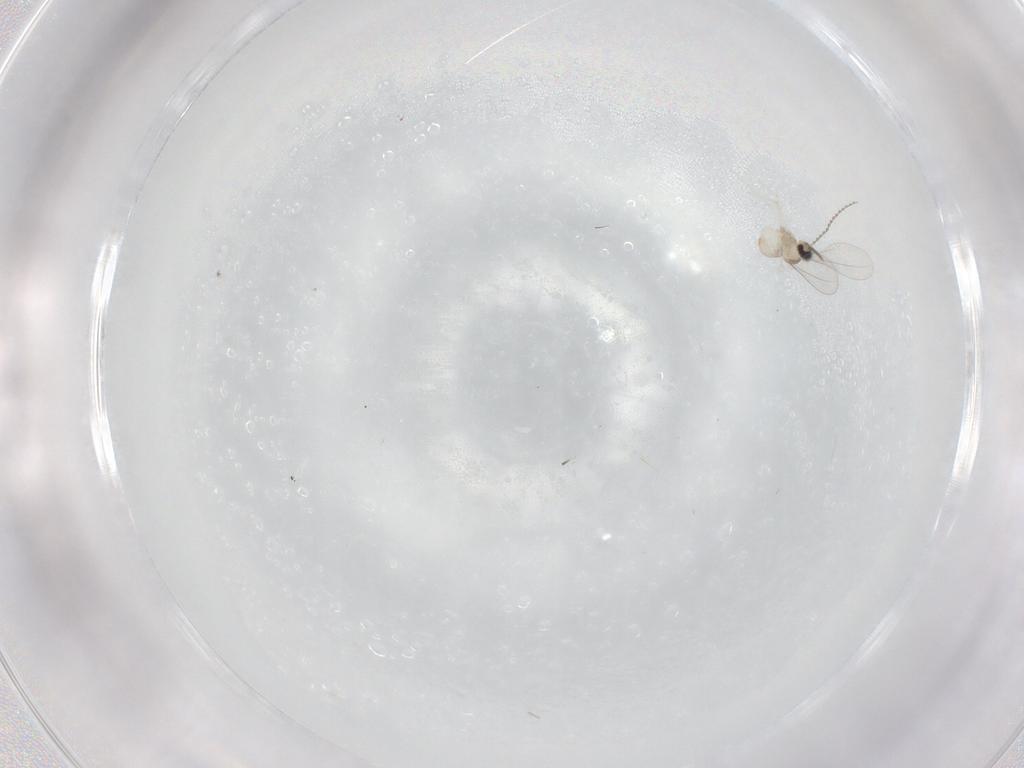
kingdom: Animalia
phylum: Arthropoda
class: Insecta
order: Diptera
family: Cecidomyiidae
